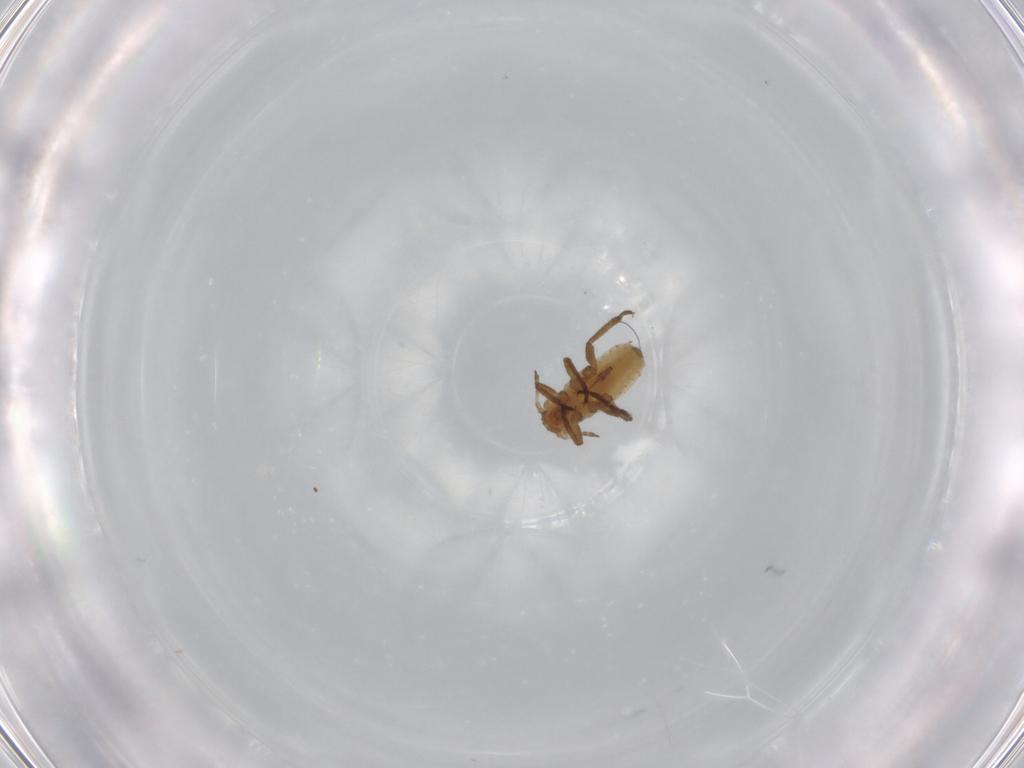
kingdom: Animalia
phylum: Arthropoda
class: Insecta
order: Hemiptera
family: Aphididae
